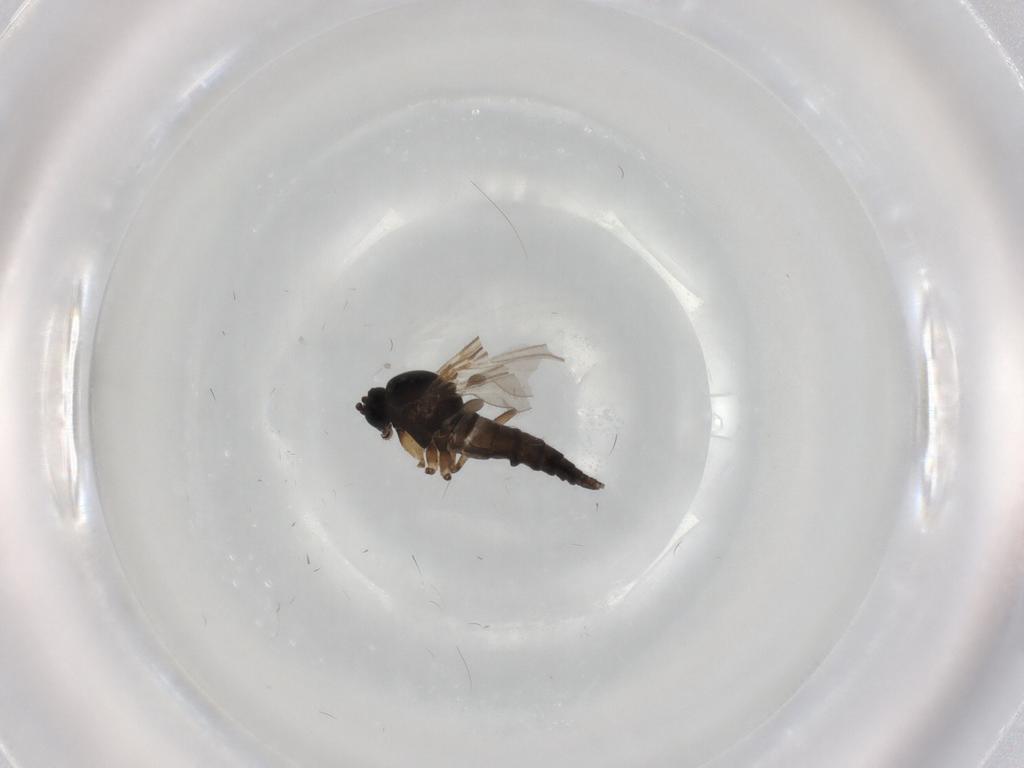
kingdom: Animalia
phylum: Arthropoda
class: Insecta
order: Diptera
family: Sciaridae
